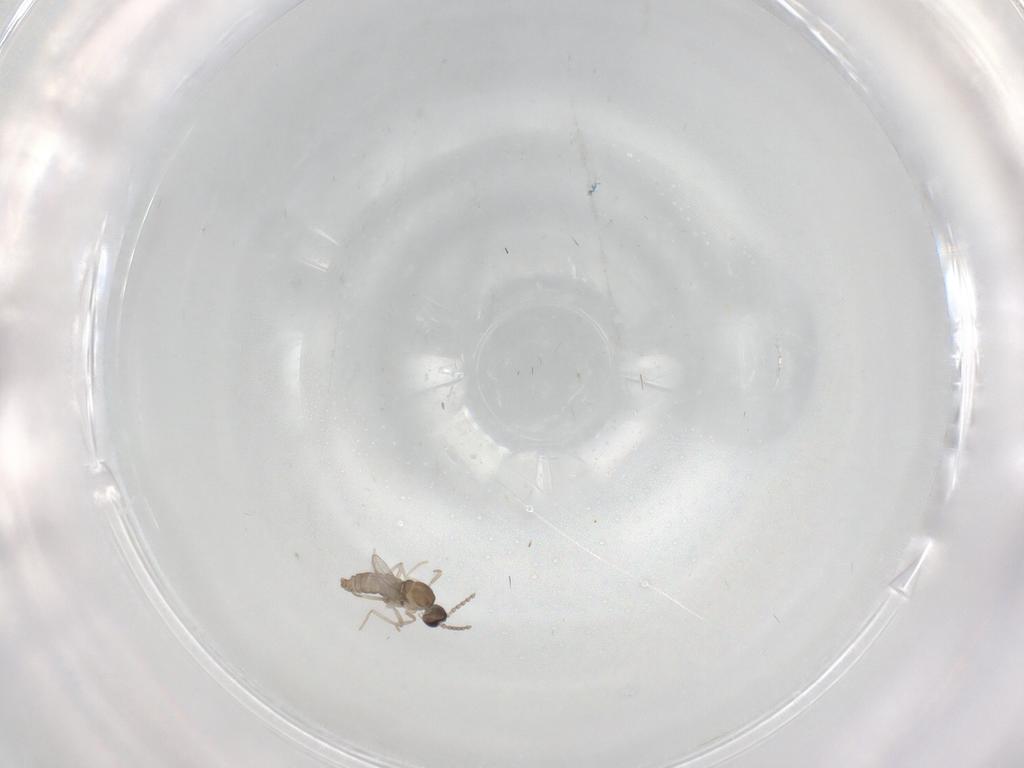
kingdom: Animalia
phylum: Arthropoda
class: Insecta
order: Diptera
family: Cecidomyiidae
